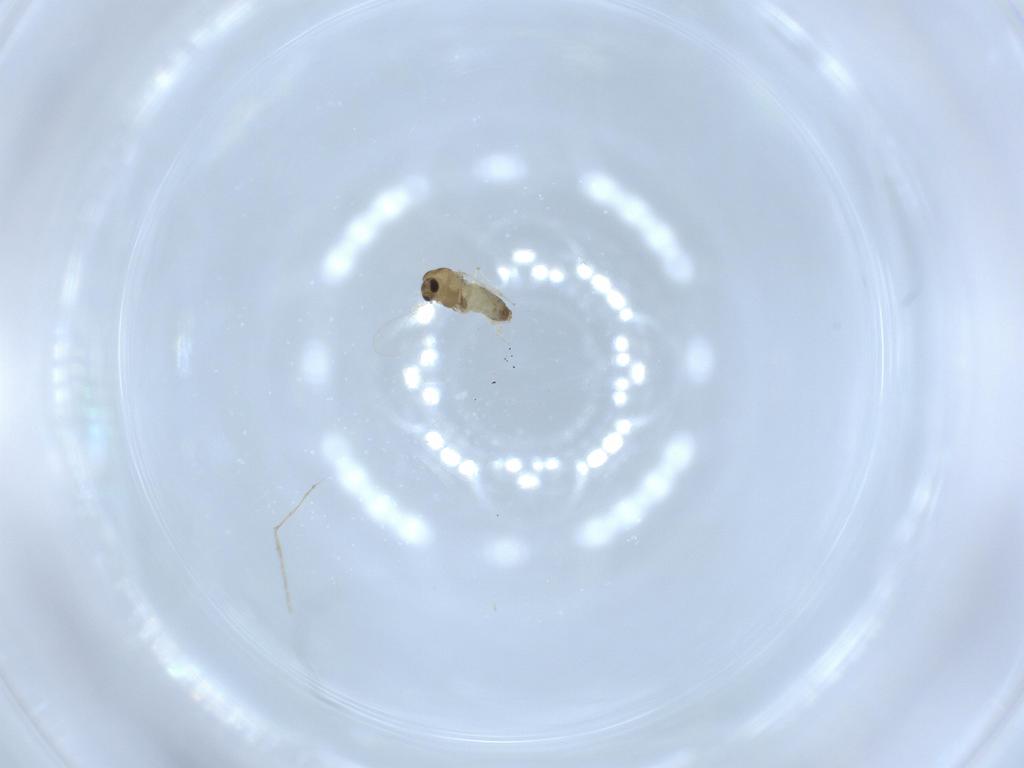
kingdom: Animalia
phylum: Arthropoda
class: Insecta
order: Diptera
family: Chironomidae
